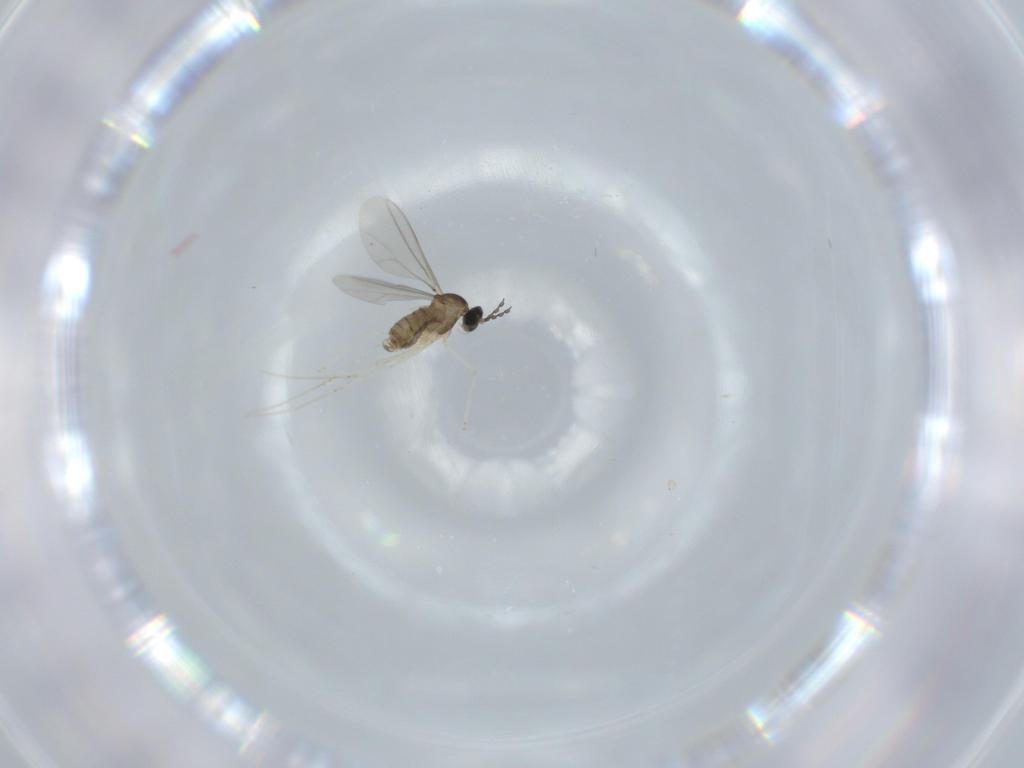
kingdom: Animalia
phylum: Arthropoda
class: Insecta
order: Diptera
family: Cecidomyiidae
